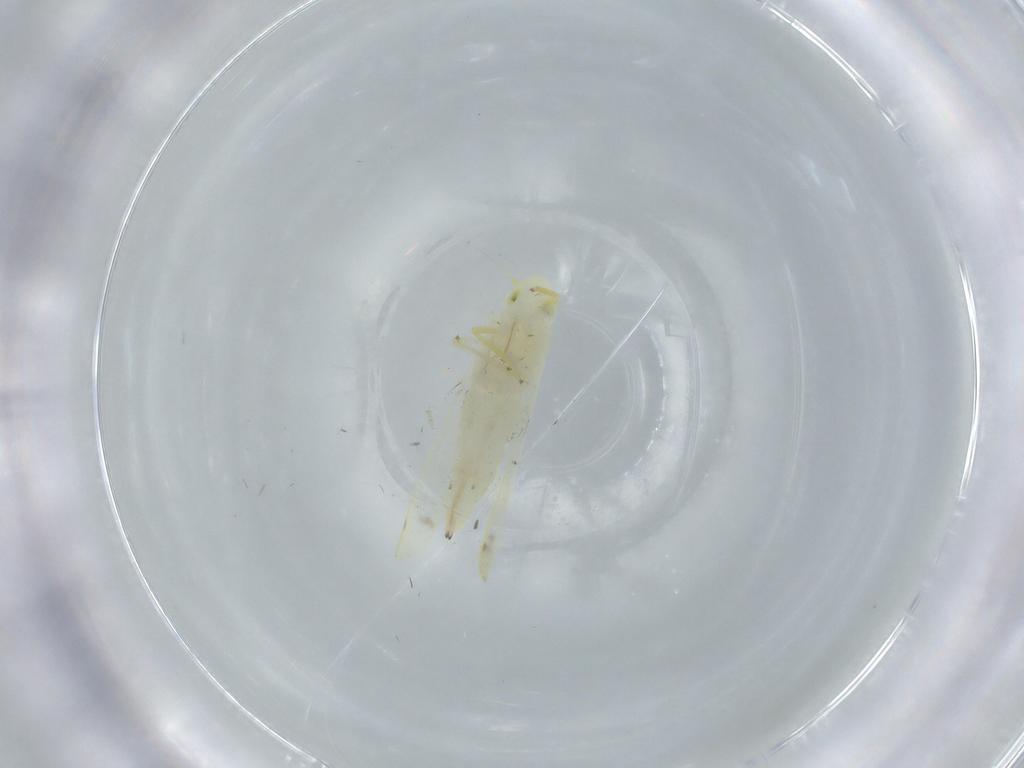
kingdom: Animalia
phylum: Arthropoda
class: Insecta
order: Hemiptera
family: Cicadellidae
